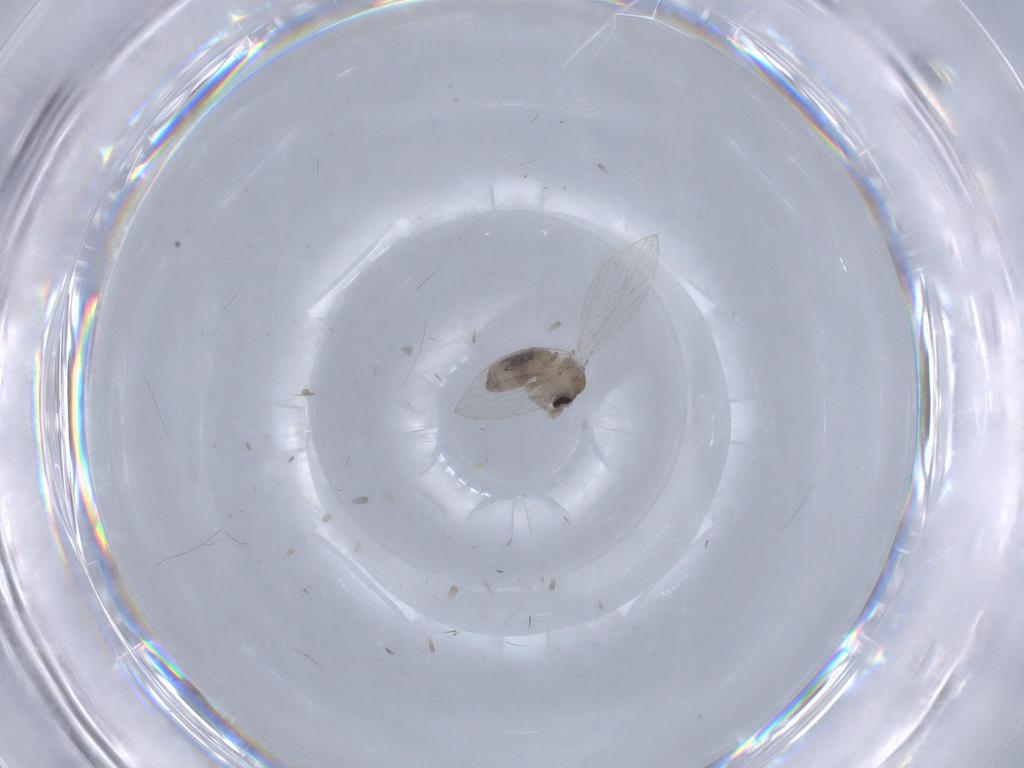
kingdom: Animalia
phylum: Arthropoda
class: Insecta
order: Diptera
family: Psychodidae
